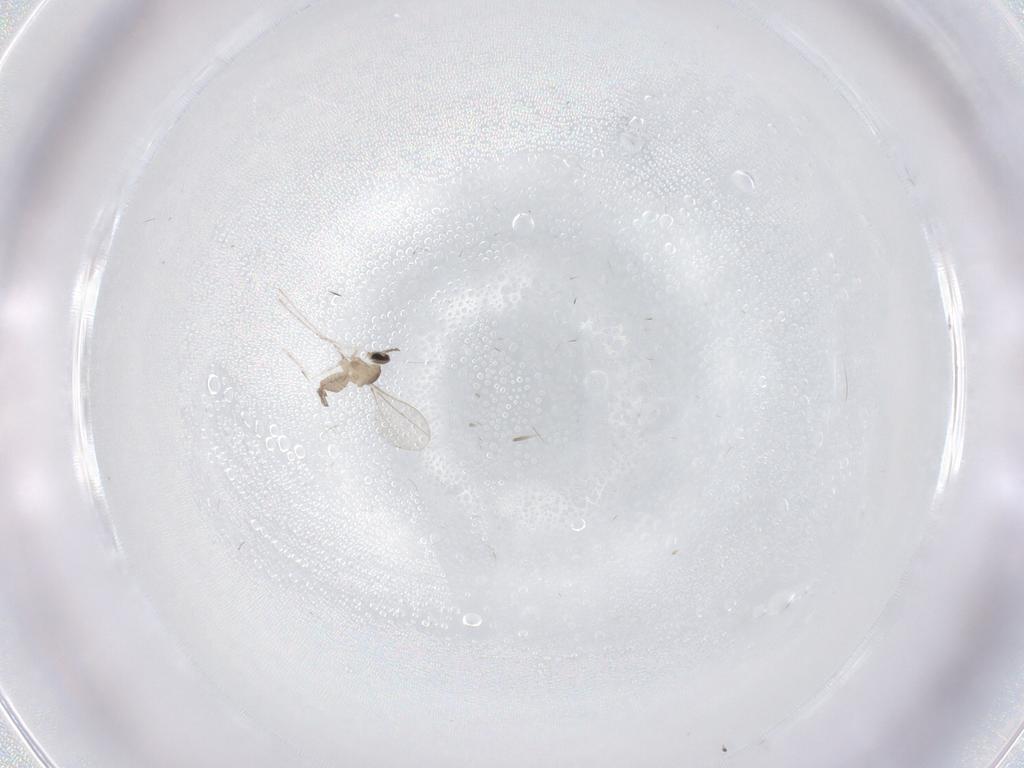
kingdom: Animalia
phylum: Arthropoda
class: Insecta
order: Diptera
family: Cecidomyiidae
